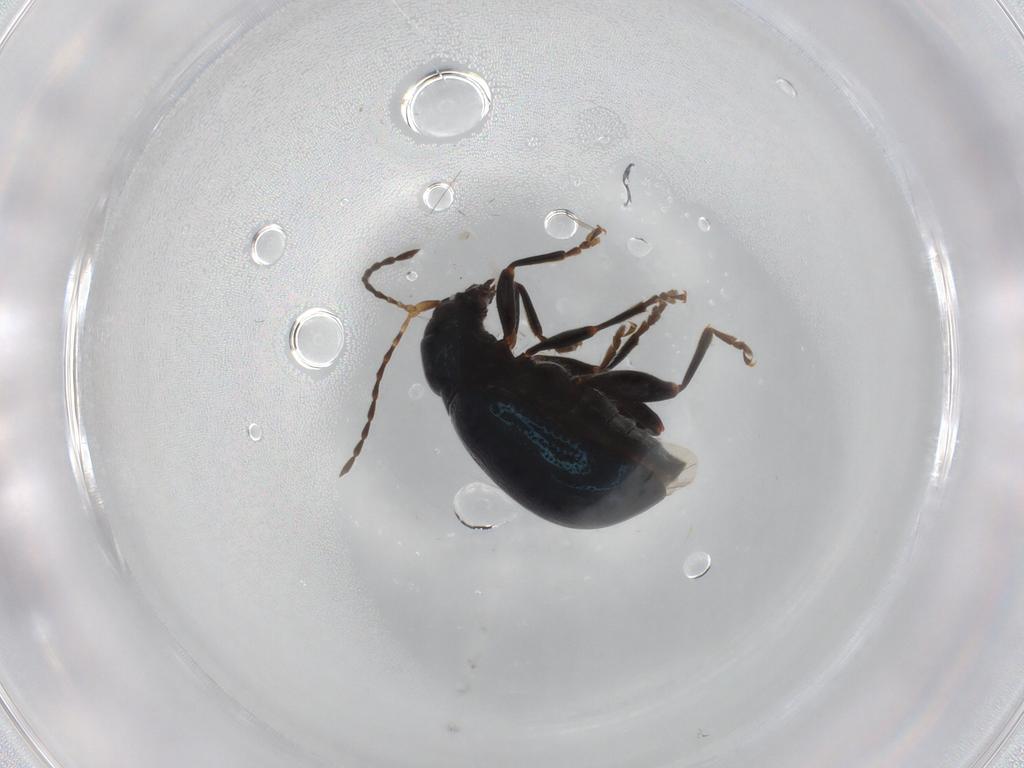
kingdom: Animalia
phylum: Arthropoda
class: Insecta
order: Coleoptera
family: Chrysomelidae
